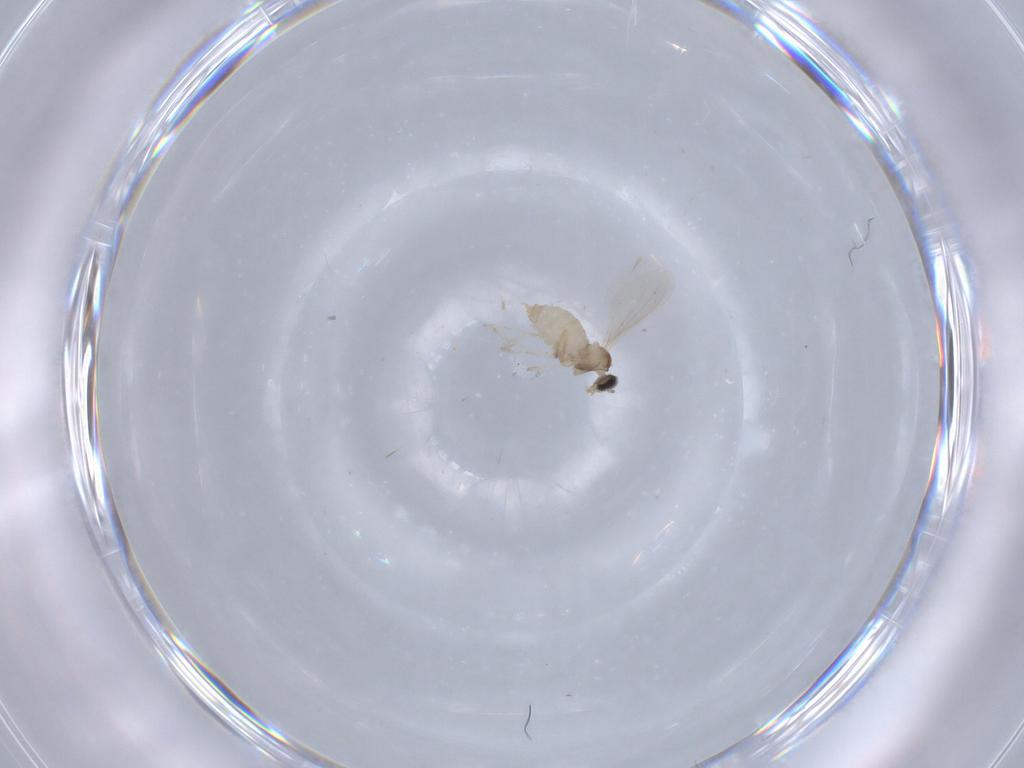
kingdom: Animalia
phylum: Arthropoda
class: Insecta
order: Diptera
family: Cecidomyiidae
